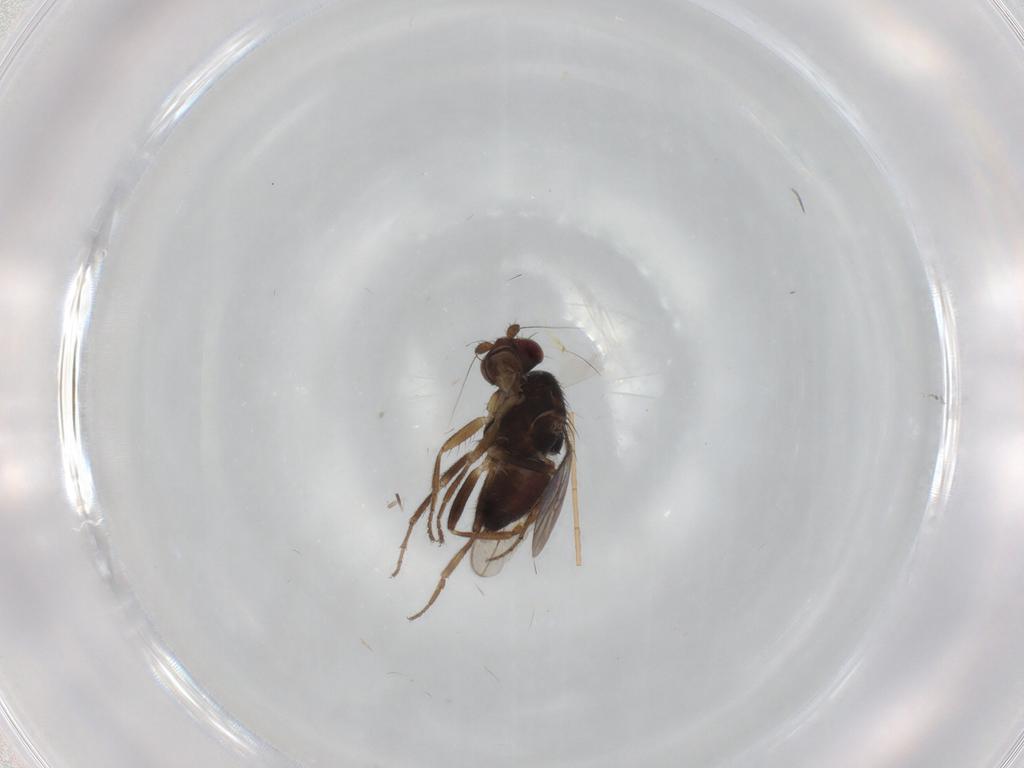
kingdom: Animalia
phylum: Arthropoda
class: Insecta
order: Diptera
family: Sphaeroceridae
